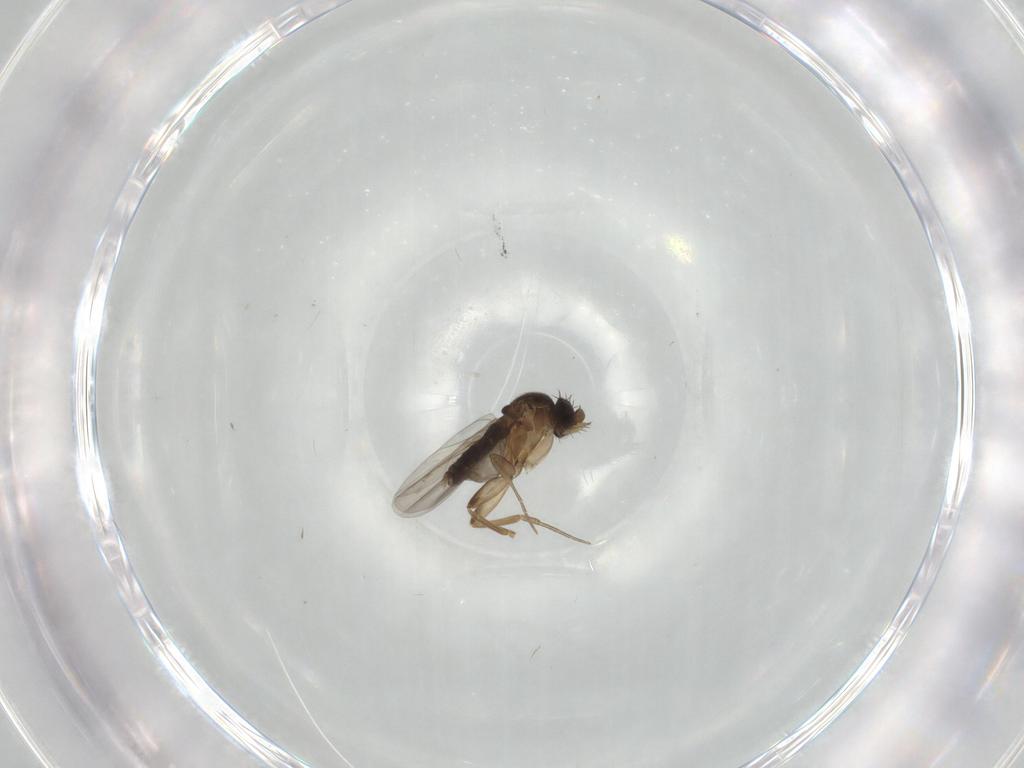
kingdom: Animalia
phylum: Arthropoda
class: Insecta
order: Diptera
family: Phoridae
